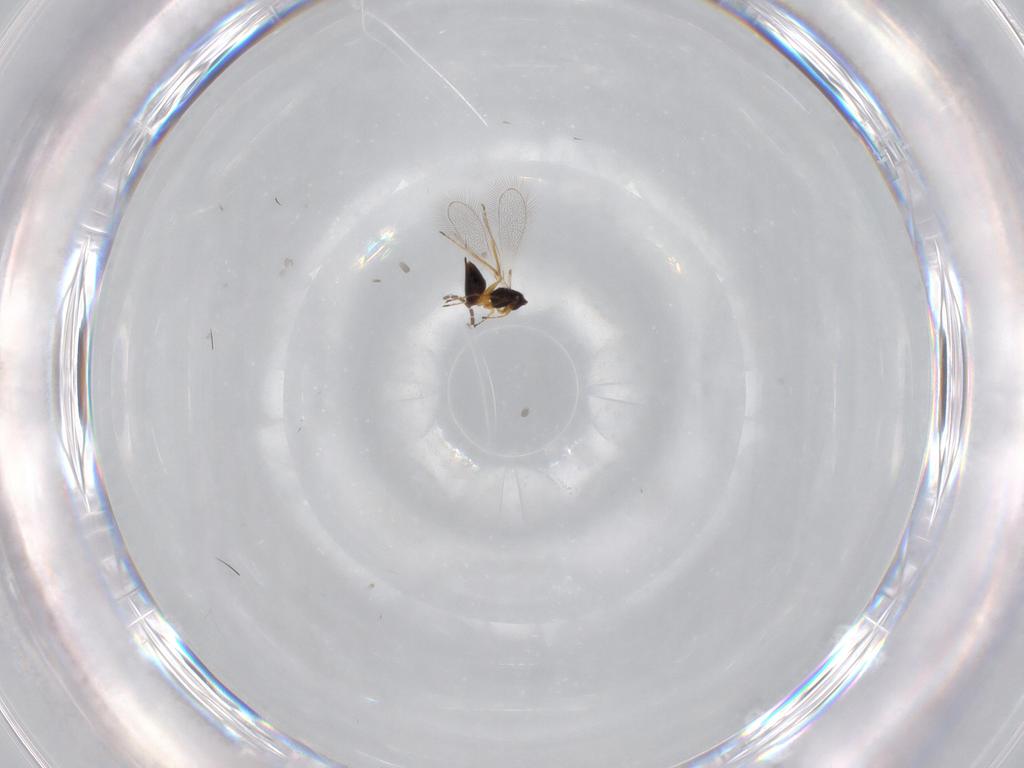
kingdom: Animalia
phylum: Arthropoda
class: Insecta
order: Hymenoptera
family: Mymaridae
